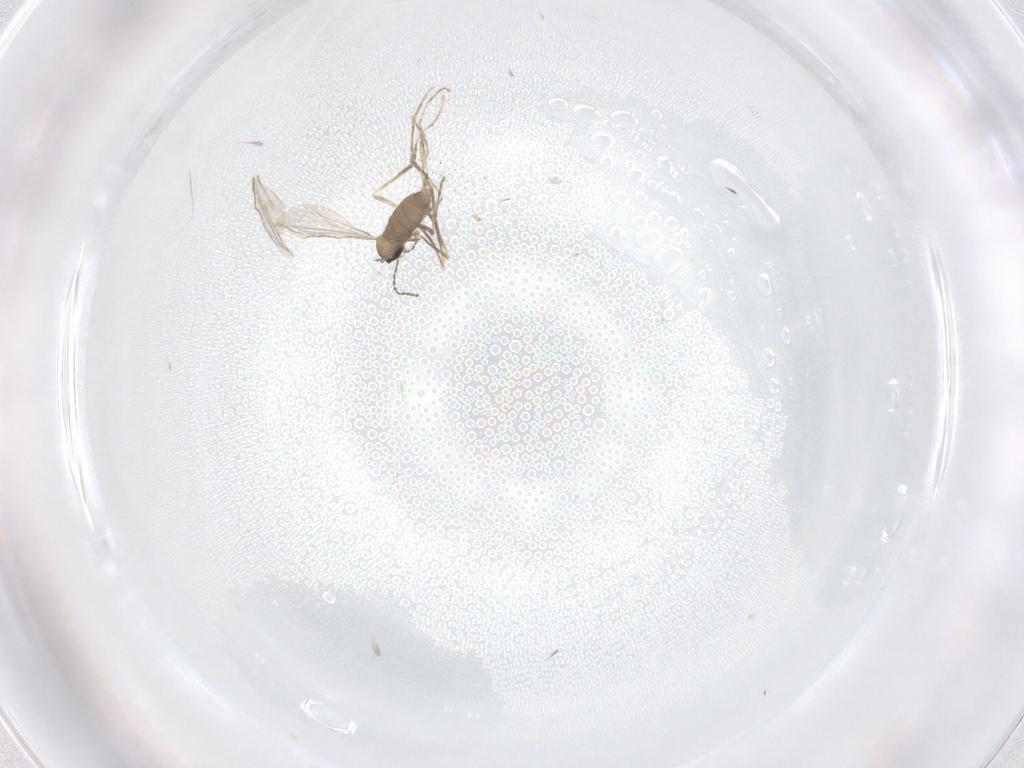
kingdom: Animalia
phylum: Arthropoda
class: Insecta
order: Diptera
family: Cecidomyiidae
